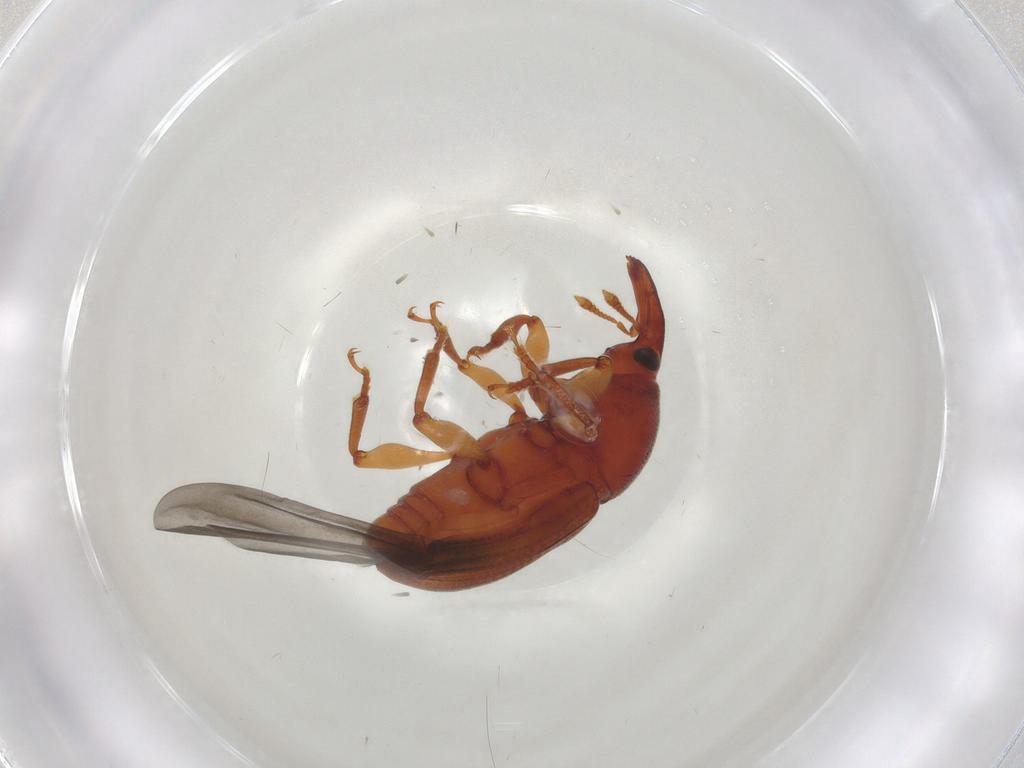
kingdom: Animalia
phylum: Arthropoda
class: Insecta
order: Coleoptera
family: Curculionidae
